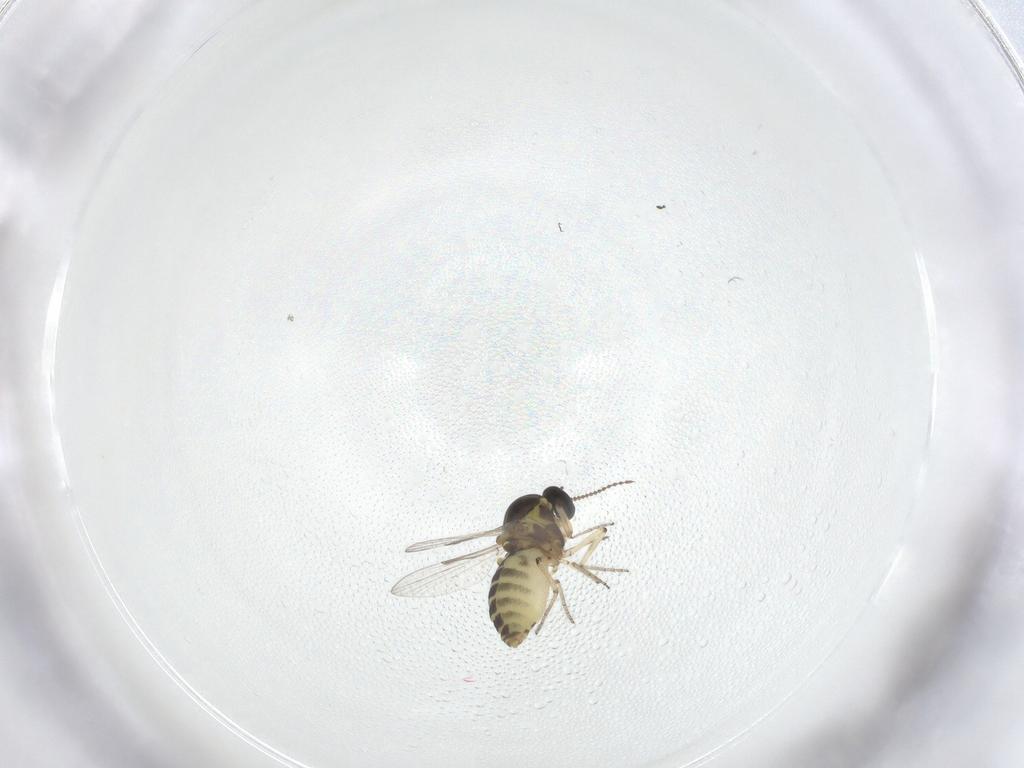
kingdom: Animalia
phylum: Arthropoda
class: Insecta
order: Diptera
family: Ceratopogonidae
